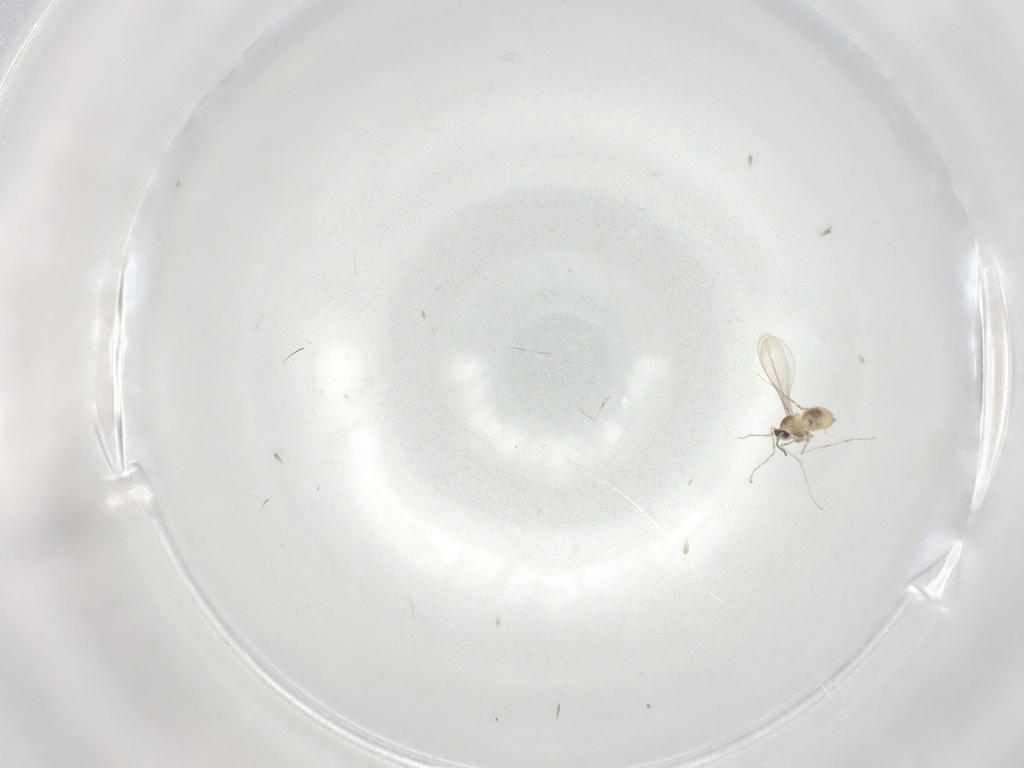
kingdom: Animalia
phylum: Arthropoda
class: Insecta
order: Diptera
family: Cecidomyiidae
